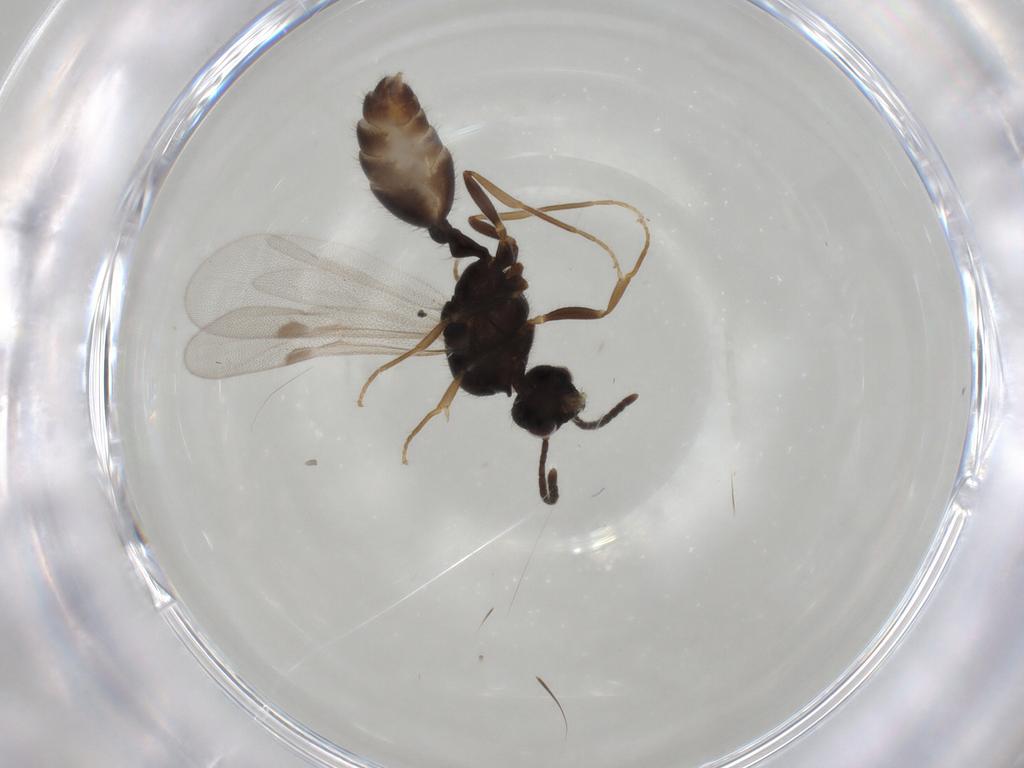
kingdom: Animalia
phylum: Arthropoda
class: Insecta
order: Hymenoptera
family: Formicidae
